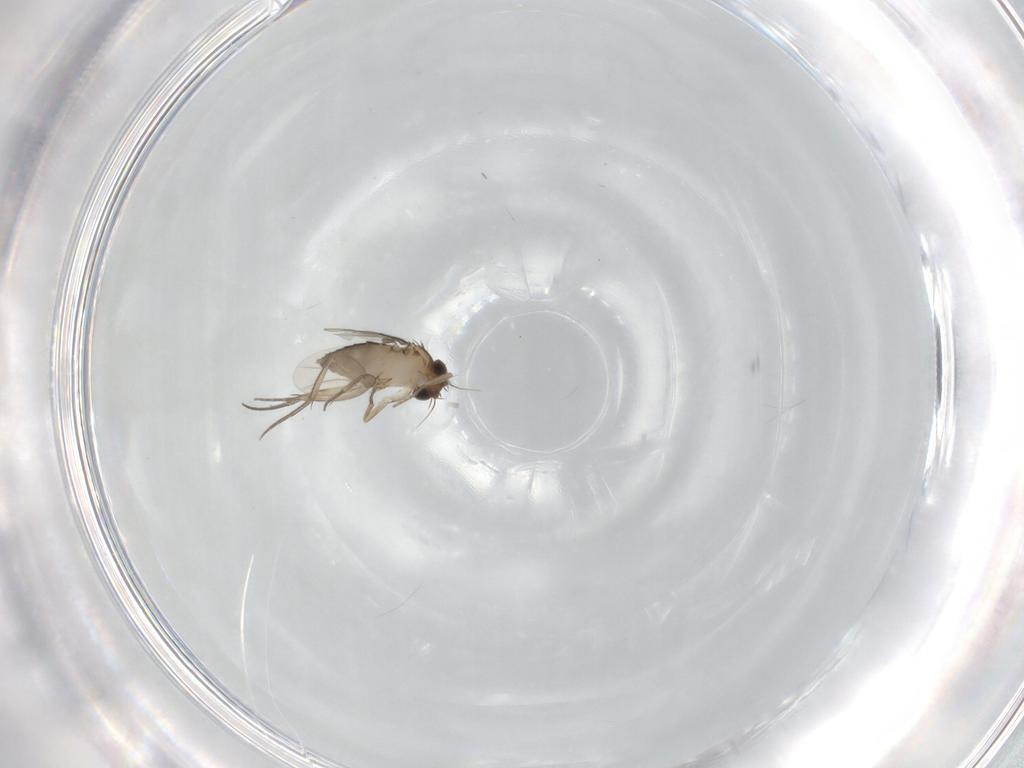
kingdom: Animalia
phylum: Arthropoda
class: Insecta
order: Diptera
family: Phoridae
